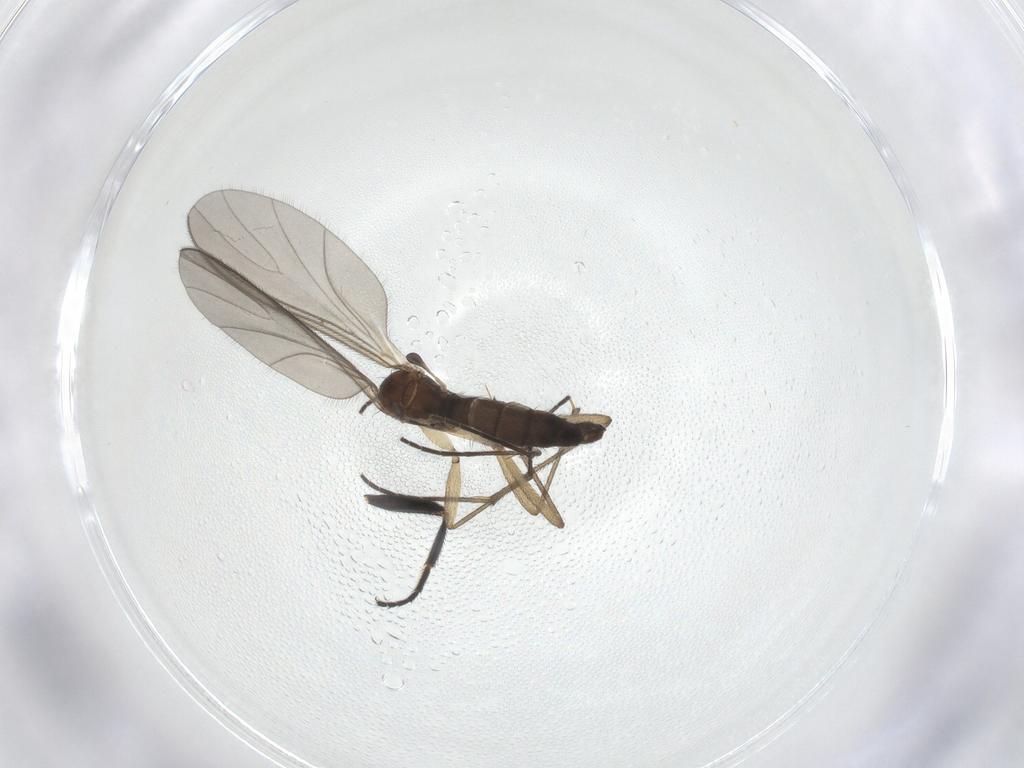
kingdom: Animalia
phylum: Arthropoda
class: Insecta
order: Diptera
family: Sciaridae
